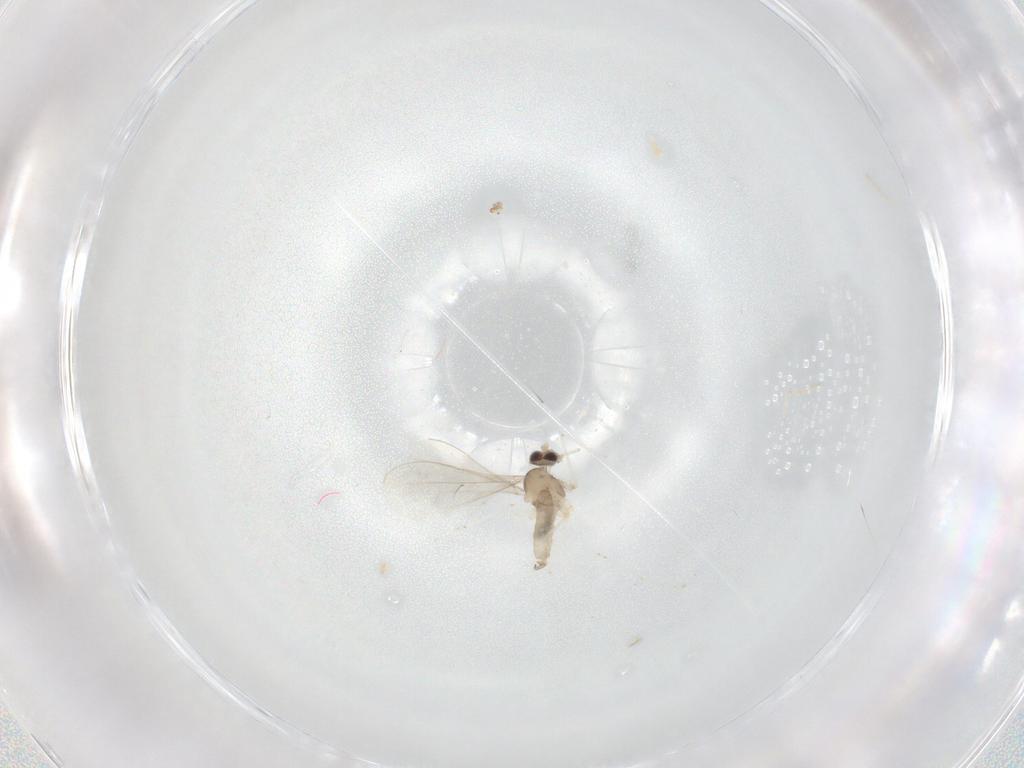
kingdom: Animalia
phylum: Arthropoda
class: Insecta
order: Diptera
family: Cecidomyiidae
